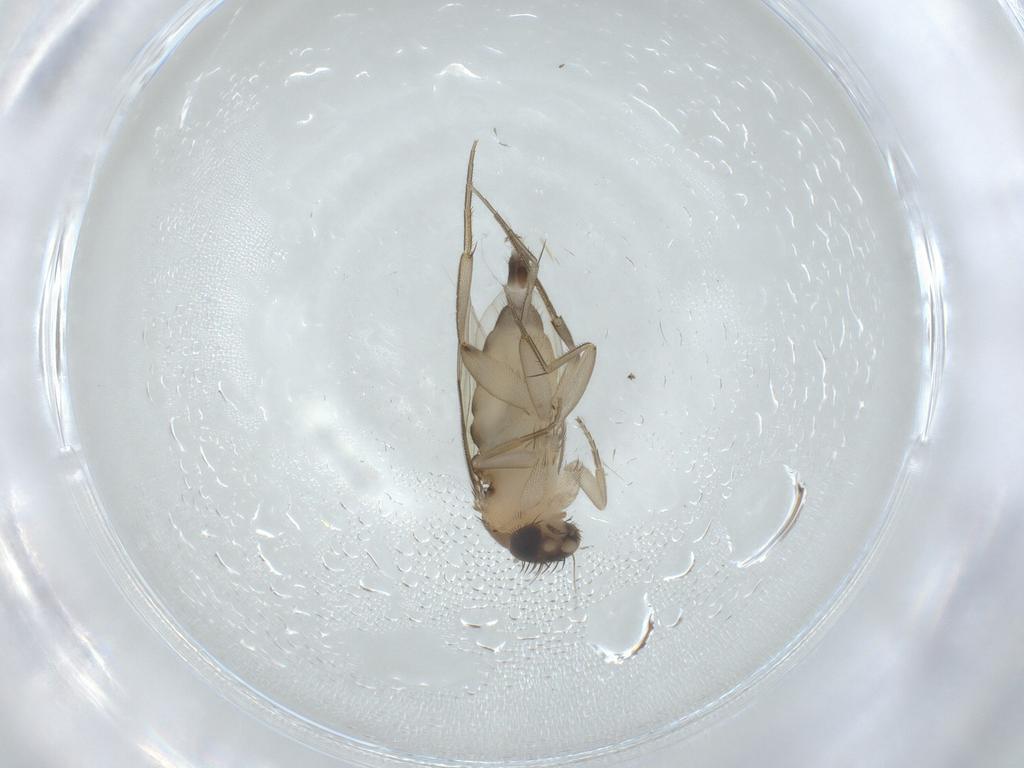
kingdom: Animalia
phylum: Arthropoda
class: Insecta
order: Diptera
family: Phoridae
